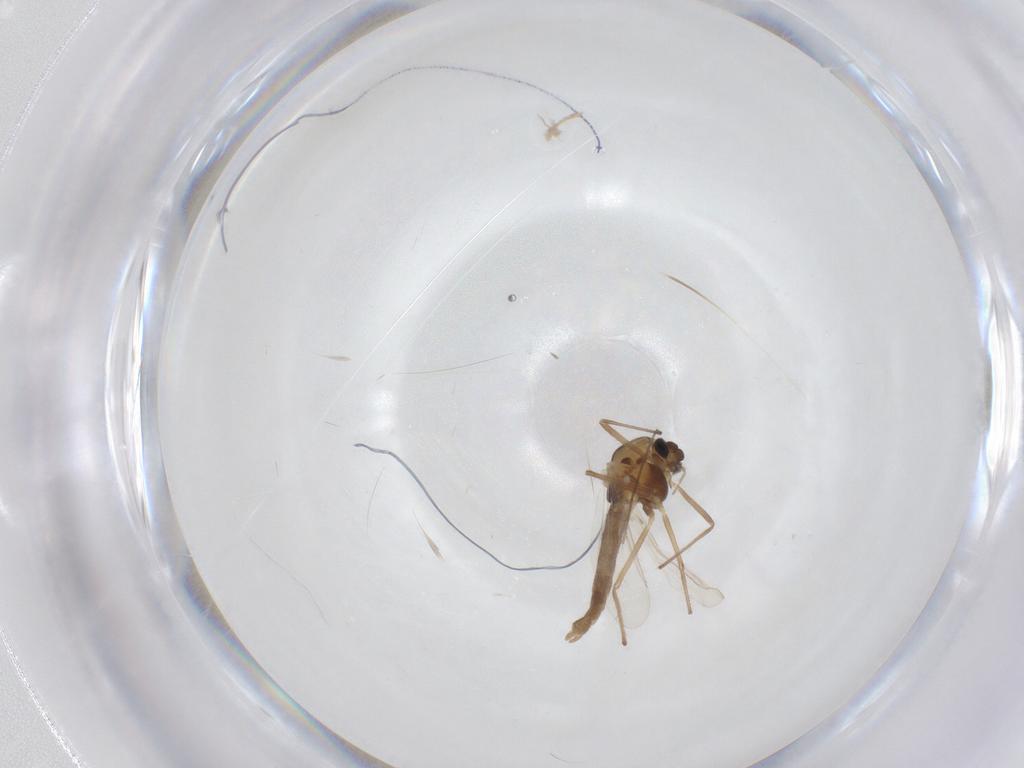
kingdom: Animalia
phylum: Arthropoda
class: Insecta
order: Diptera
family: Chironomidae
